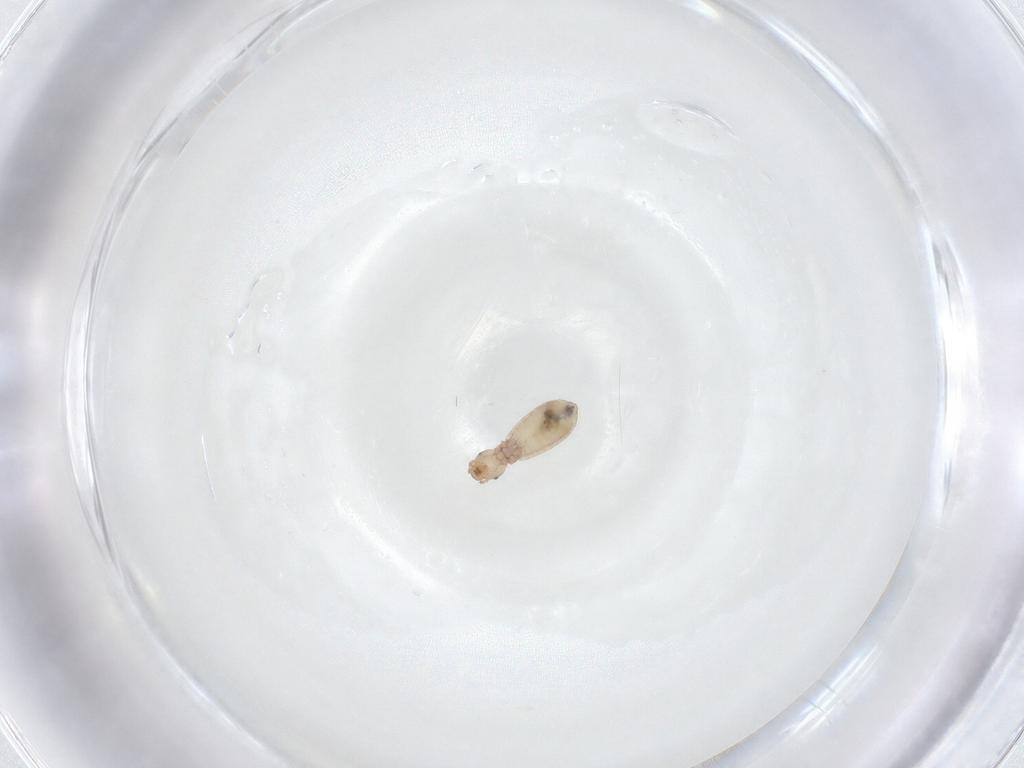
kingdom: Animalia
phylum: Arthropoda
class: Insecta
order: Psocodea
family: Liposcelididae
